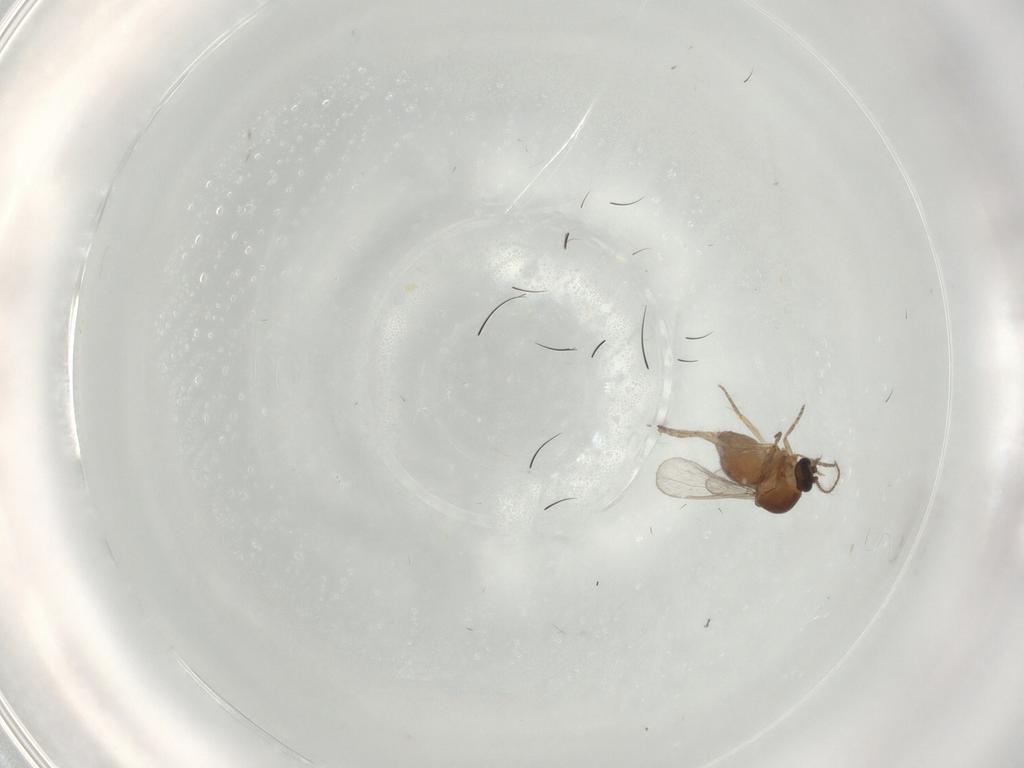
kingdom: Animalia
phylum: Arthropoda
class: Insecta
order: Diptera
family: Dolichopodidae
